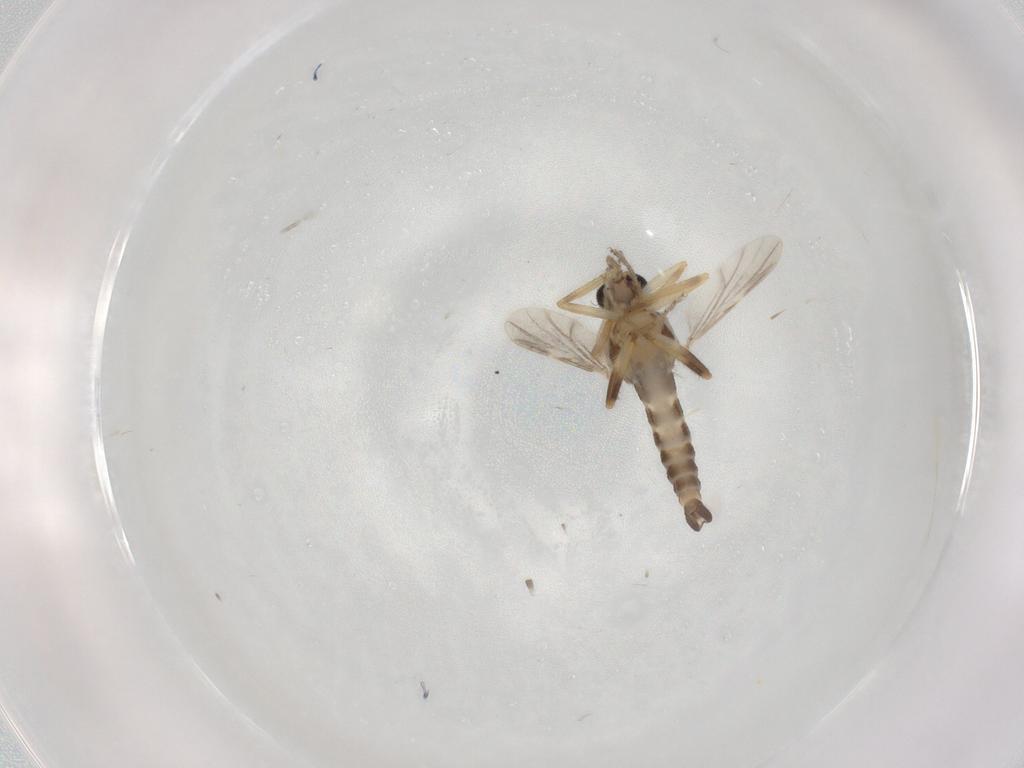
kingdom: Animalia
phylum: Arthropoda
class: Insecta
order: Diptera
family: Ceratopogonidae
